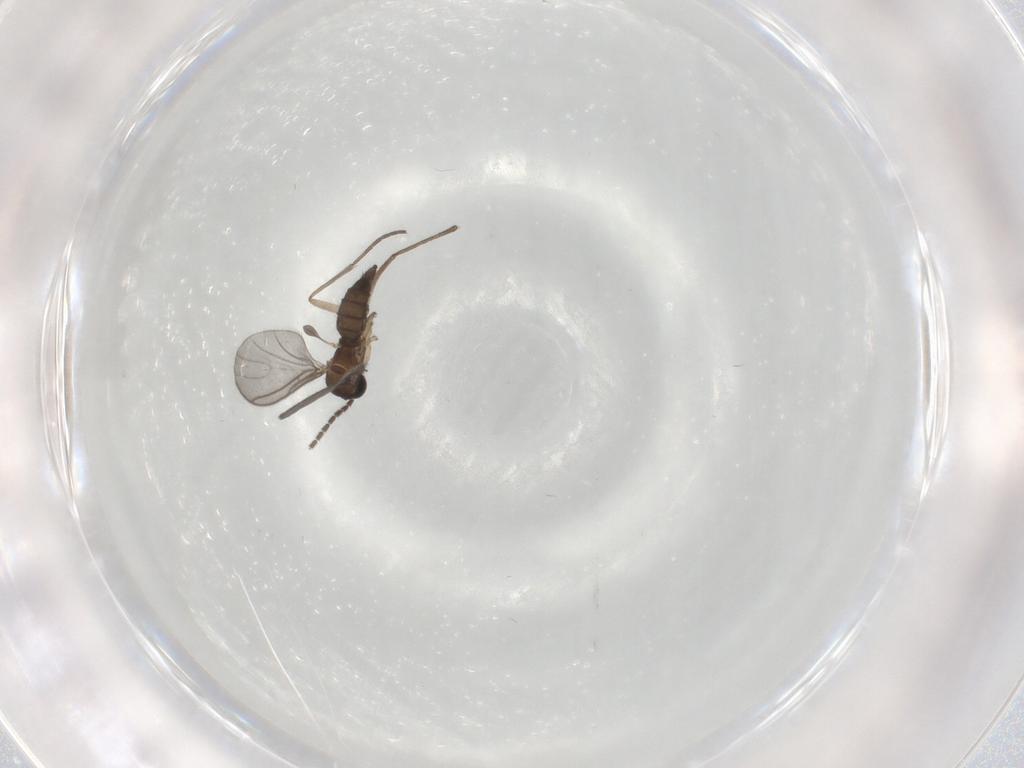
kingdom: Animalia
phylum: Arthropoda
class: Insecta
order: Diptera
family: Sciaridae
